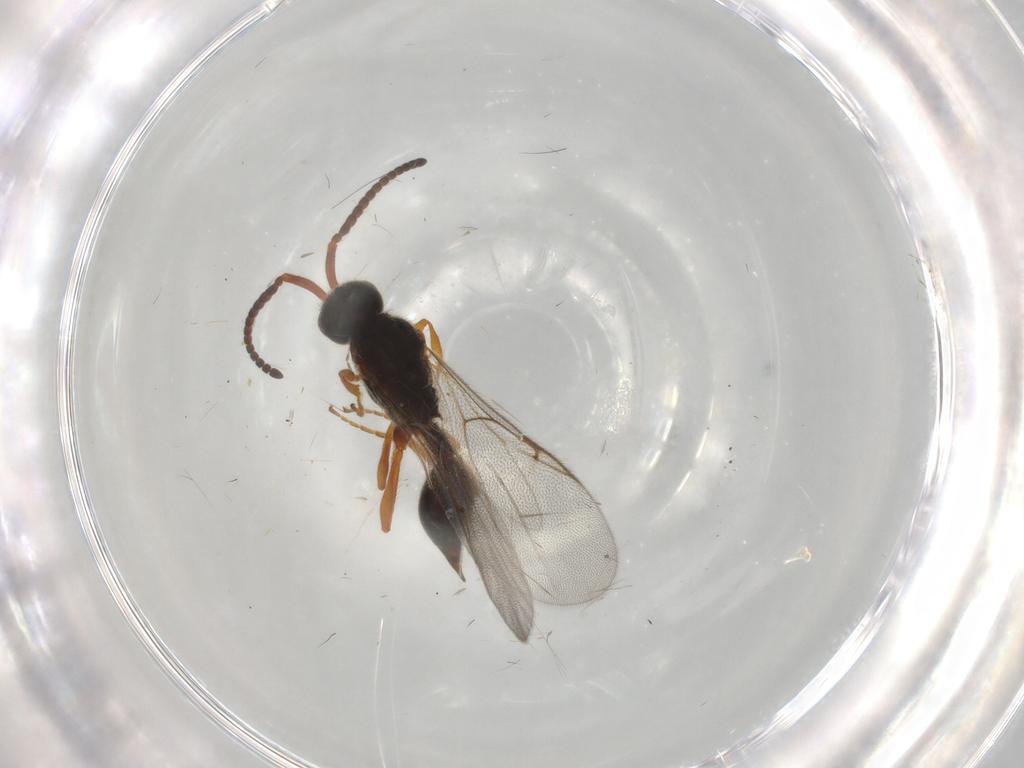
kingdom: Animalia
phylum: Arthropoda
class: Insecta
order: Hymenoptera
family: Diapriidae
